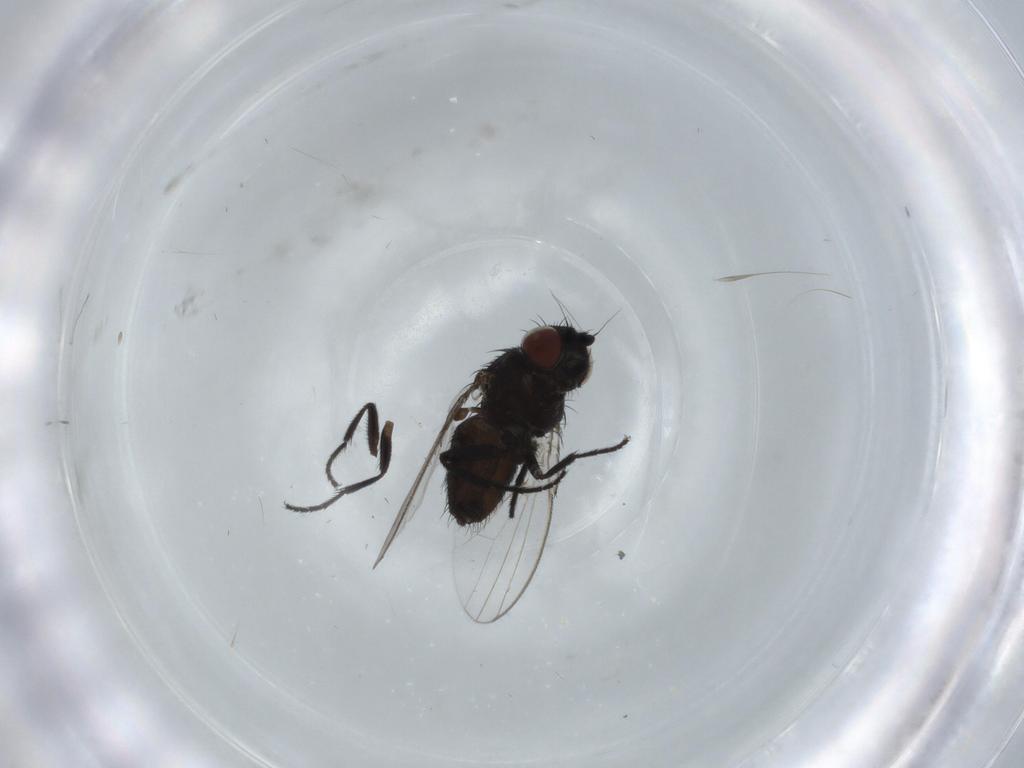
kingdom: Animalia
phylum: Arthropoda
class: Insecta
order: Diptera
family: Milichiidae
